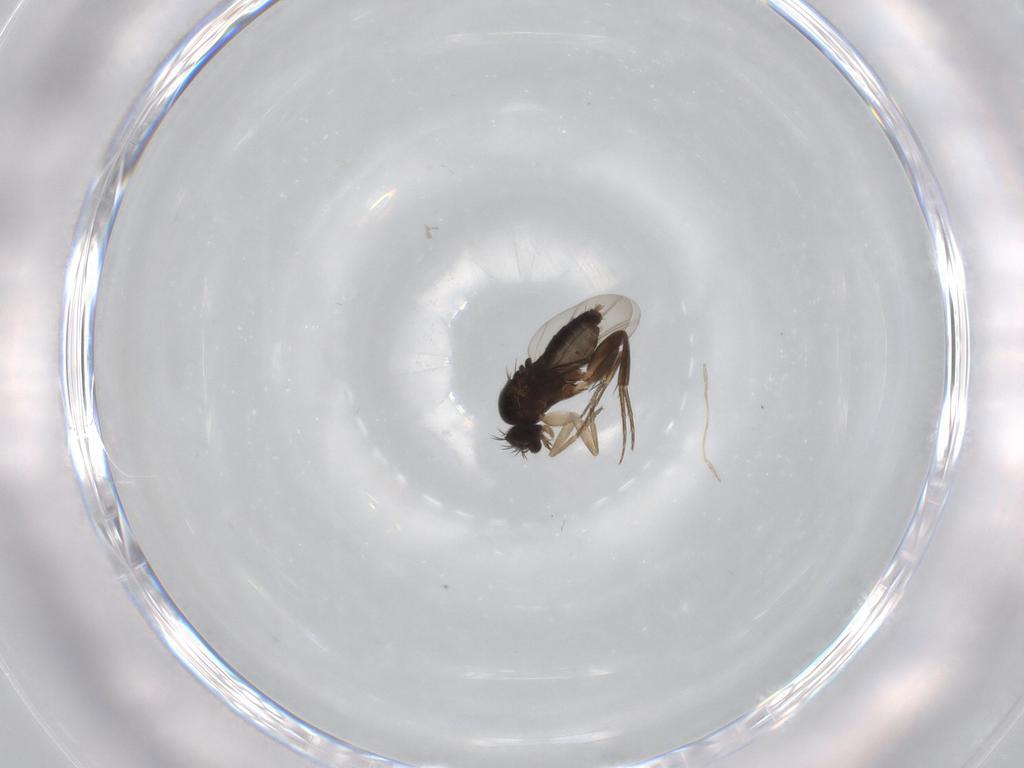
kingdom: Animalia
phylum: Arthropoda
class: Insecta
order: Diptera
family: Phoridae
